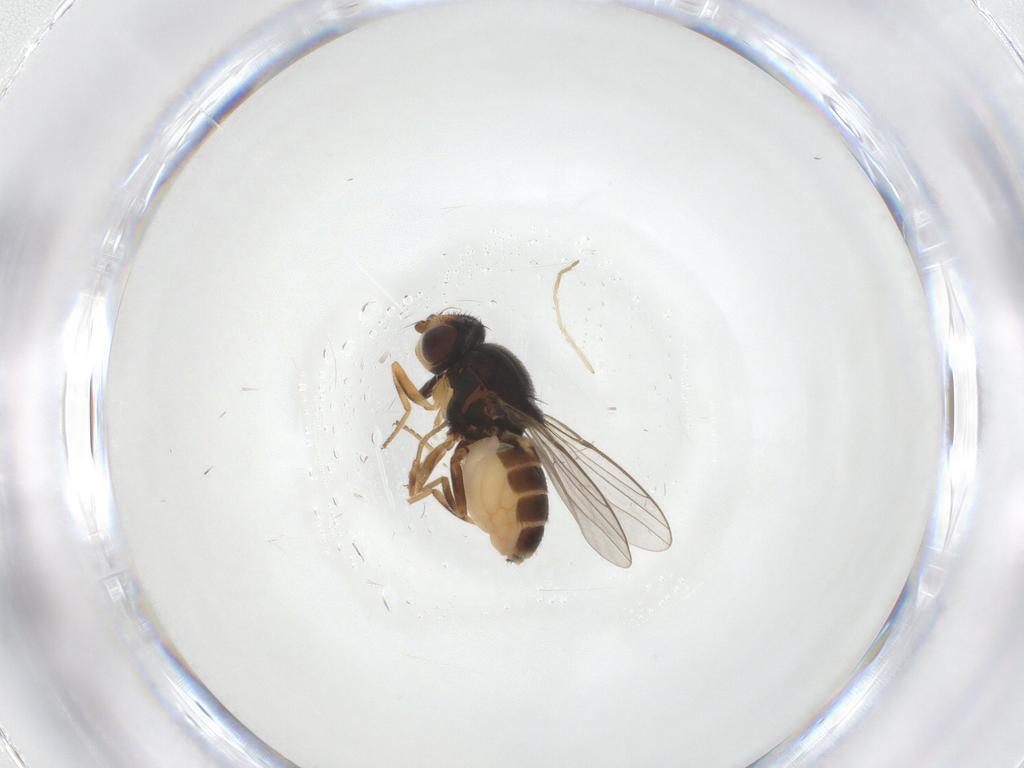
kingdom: Animalia
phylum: Arthropoda
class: Insecta
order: Diptera
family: Chloropidae
